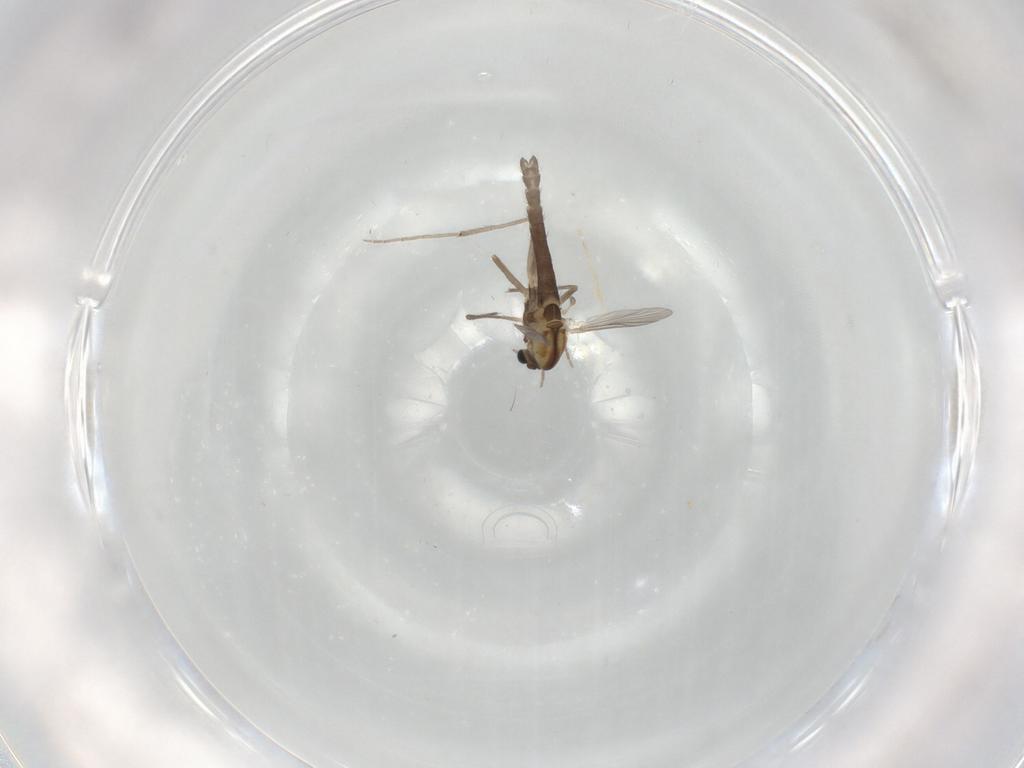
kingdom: Animalia
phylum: Arthropoda
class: Insecta
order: Diptera
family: Chironomidae
